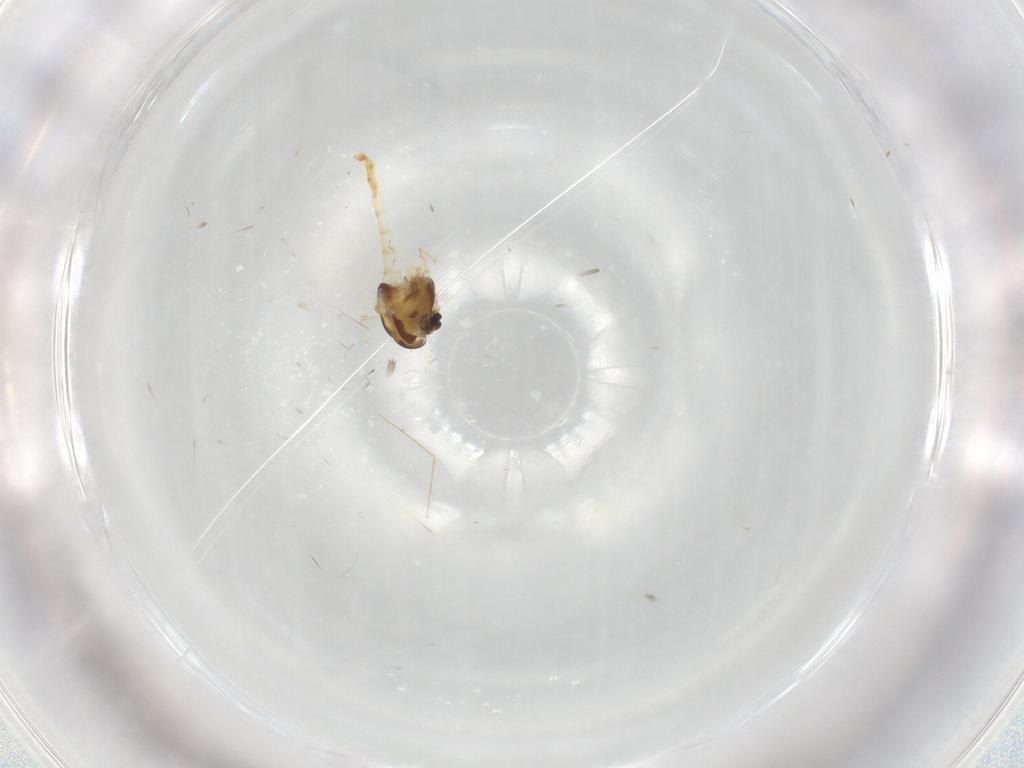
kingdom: Animalia
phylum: Arthropoda
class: Insecta
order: Diptera
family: Chironomidae
